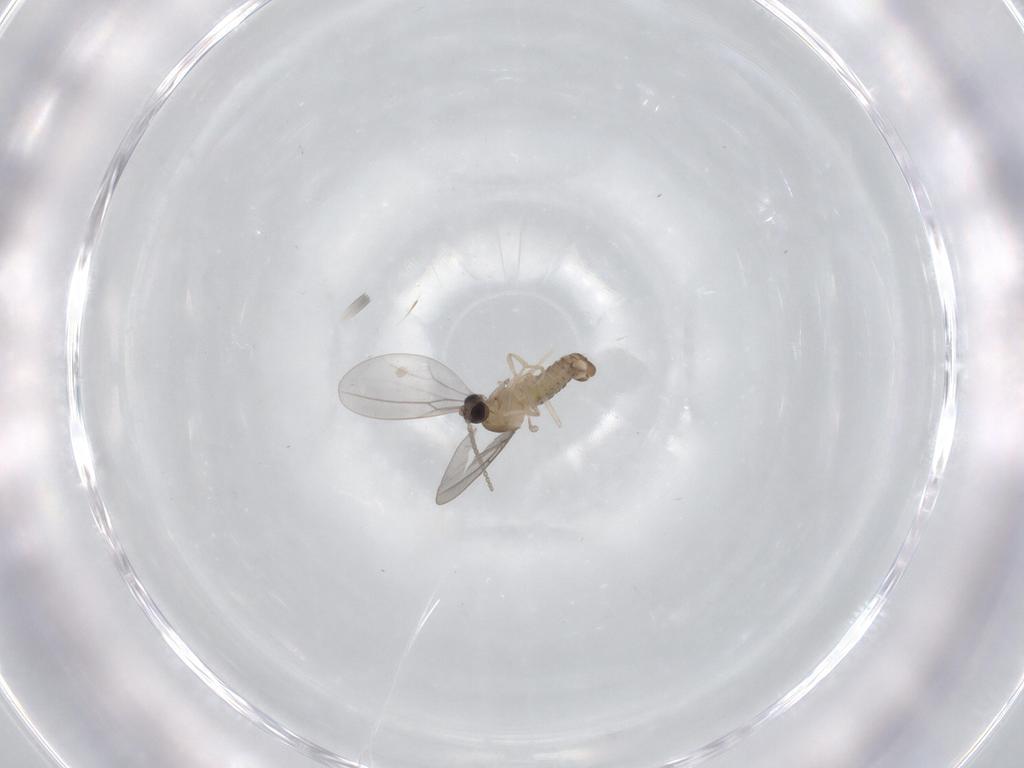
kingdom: Animalia
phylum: Arthropoda
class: Insecta
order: Diptera
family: Cecidomyiidae
